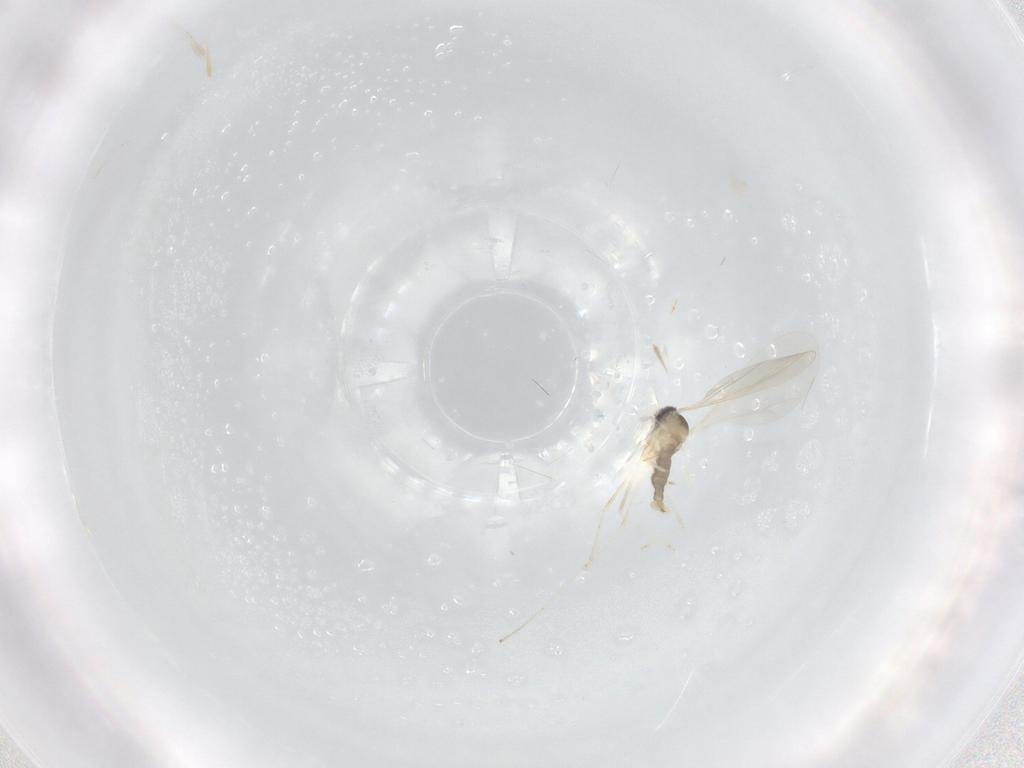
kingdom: Animalia
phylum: Arthropoda
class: Insecta
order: Diptera
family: Cecidomyiidae
